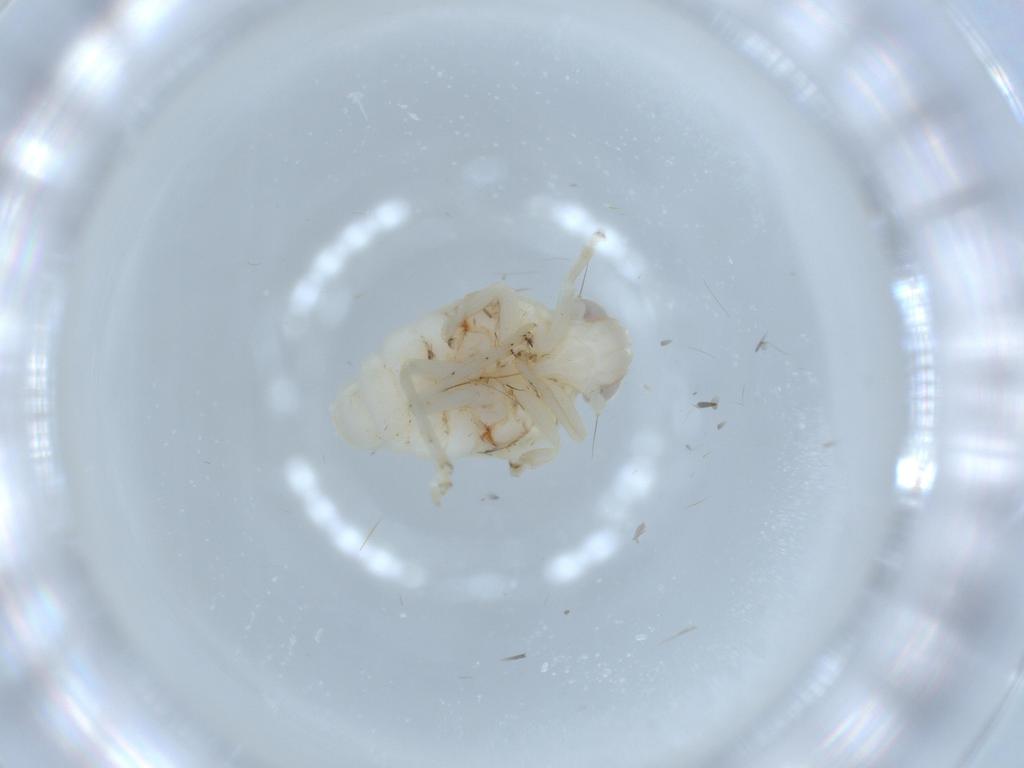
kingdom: Animalia
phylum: Arthropoda
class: Insecta
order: Hemiptera
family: Nogodinidae
